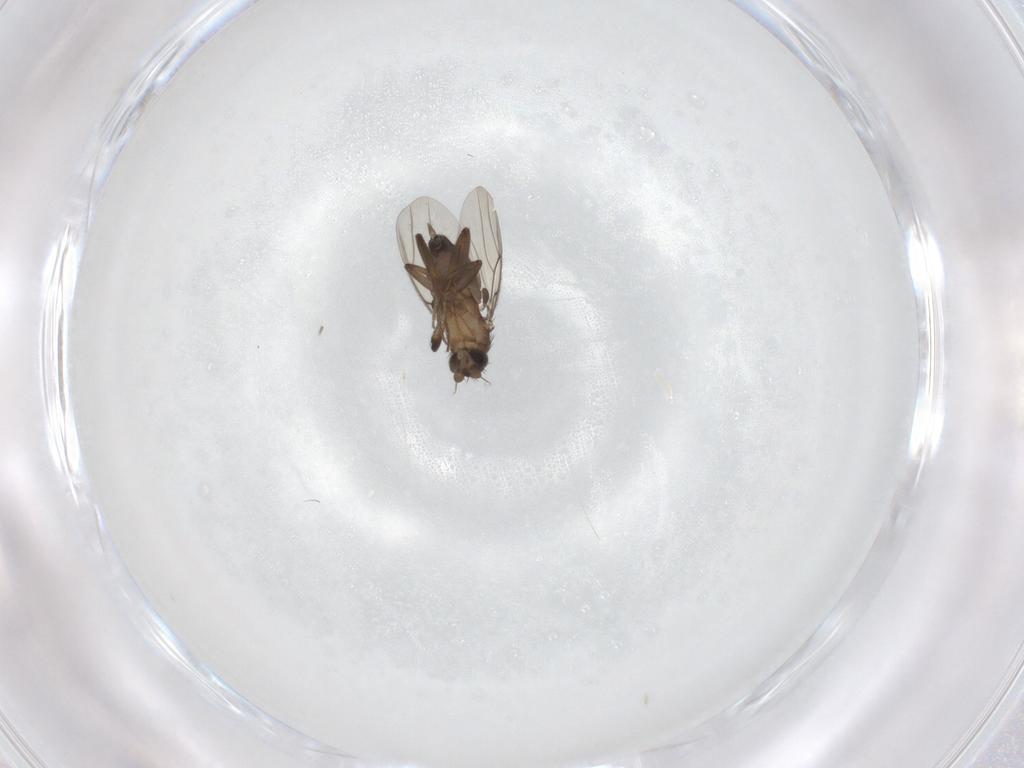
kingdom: Animalia
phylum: Arthropoda
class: Insecta
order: Diptera
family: Phoridae
